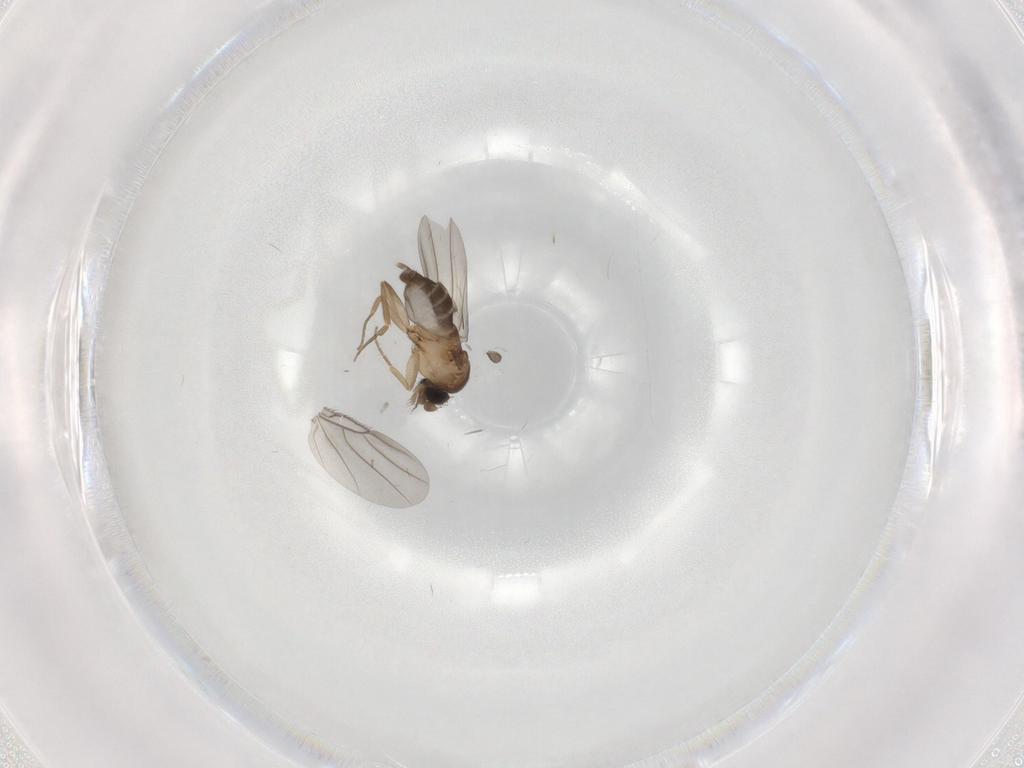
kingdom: Animalia
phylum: Arthropoda
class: Insecta
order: Diptera
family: Phoridae
